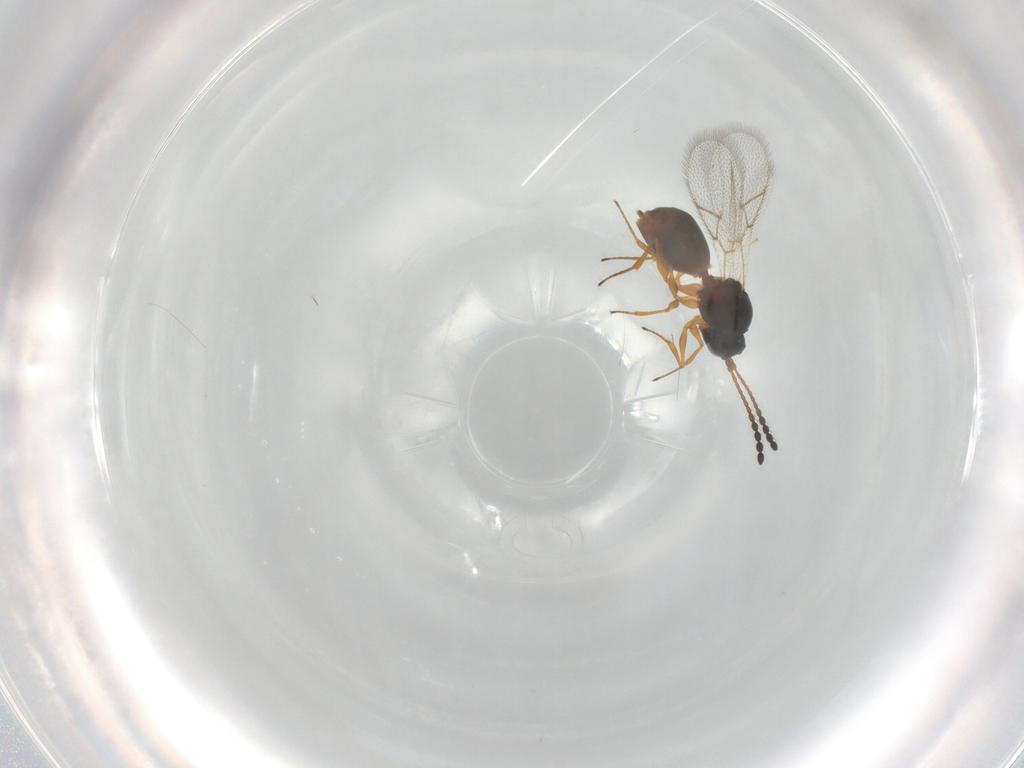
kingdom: Animalia
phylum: Arthropoda
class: Insecta
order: Hymenoptera
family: Figitidae
